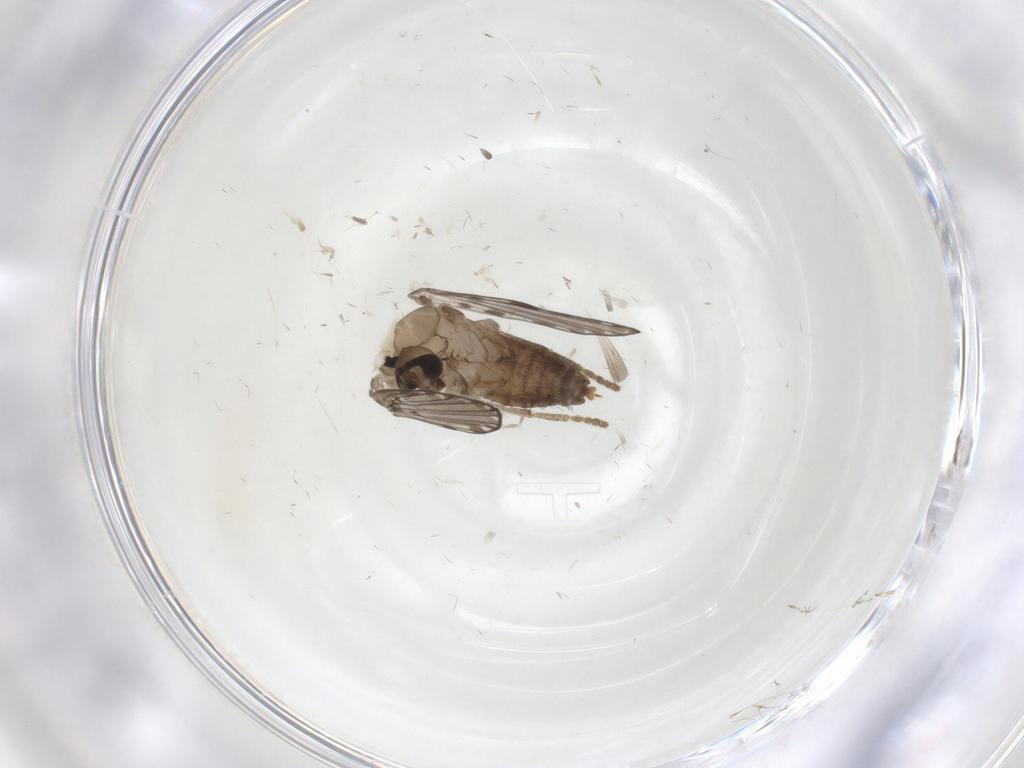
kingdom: Animalia
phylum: Arthropoda
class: Insecta
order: Diptera
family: Psychodidae
